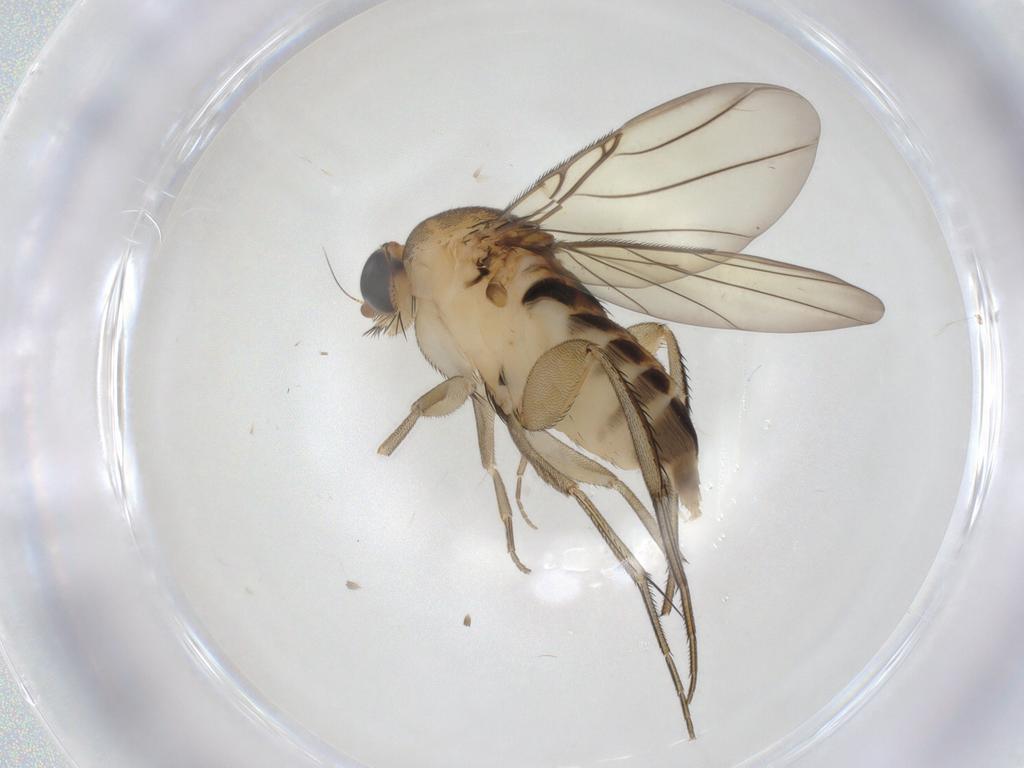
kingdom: Animalia
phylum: Arthropoda
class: Insecta
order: Diptera
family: Phoridae
